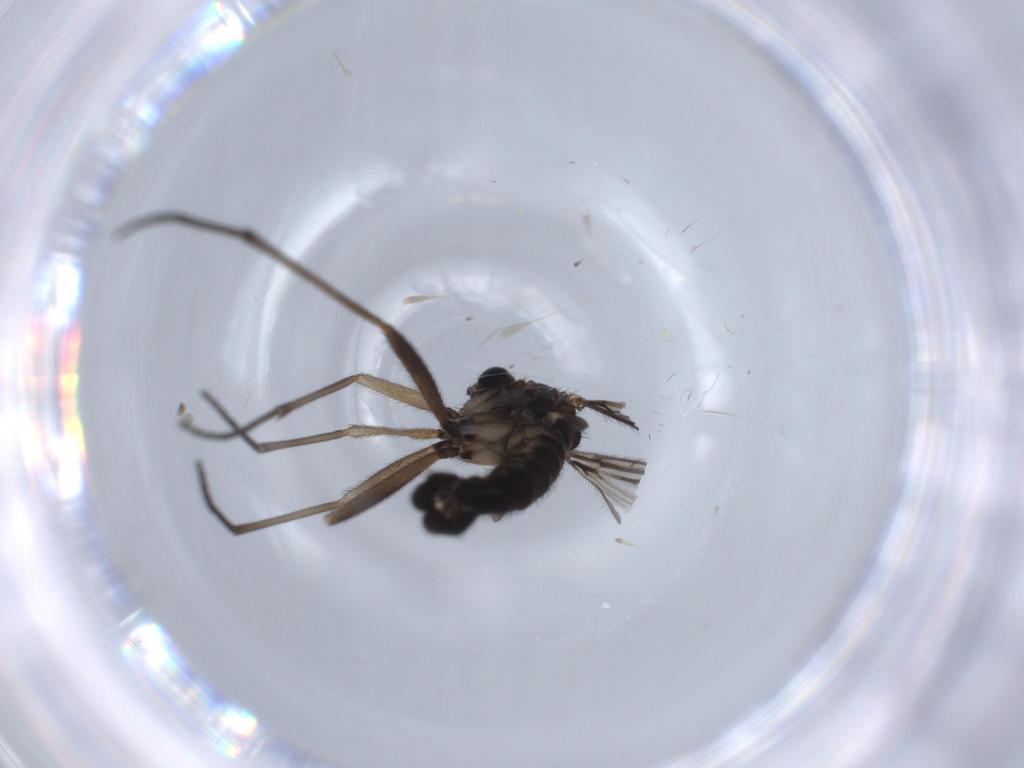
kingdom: Animalia
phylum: Arthropoda
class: Insecta
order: Diptera
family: Sciaridae
